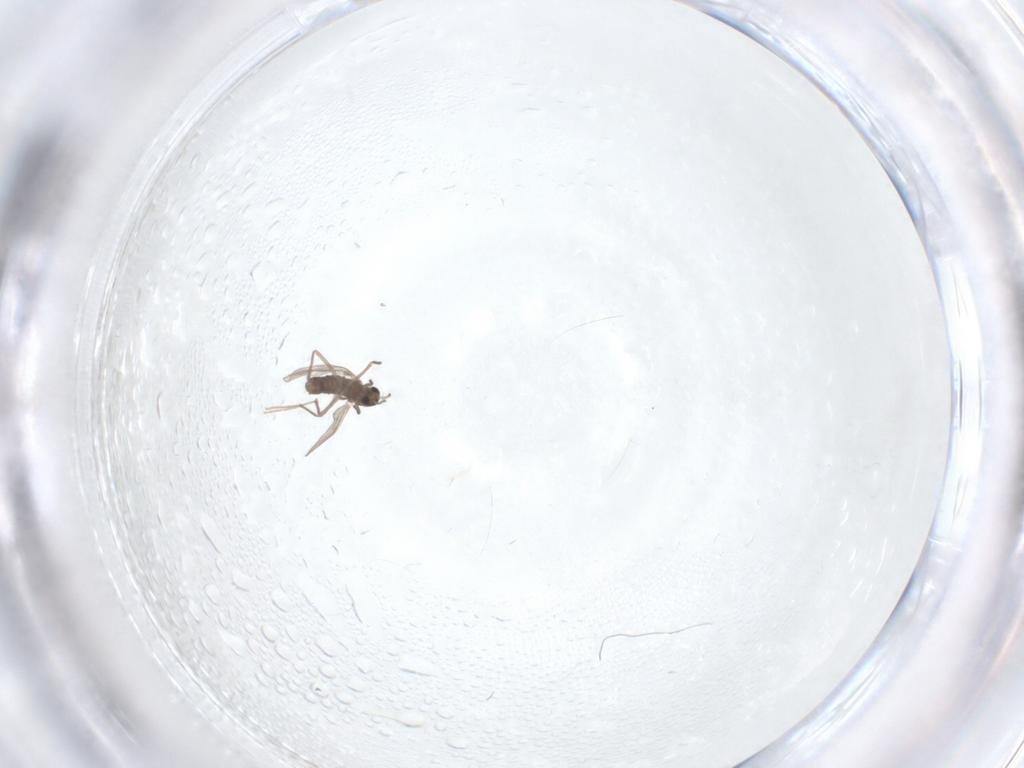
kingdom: Animalia
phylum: Arthropoda
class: Insecta
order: Diptera
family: Chironomidae
